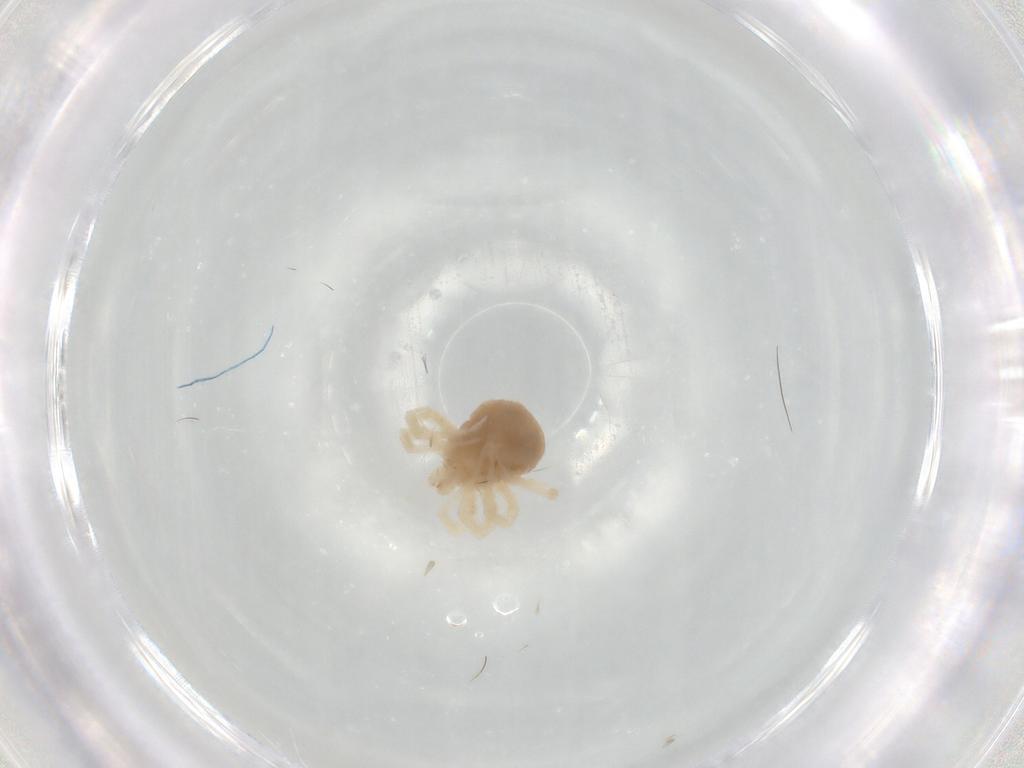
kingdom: Animalia
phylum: Arthropoda
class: Arachnida
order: Trombidiformes
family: Anystidae
